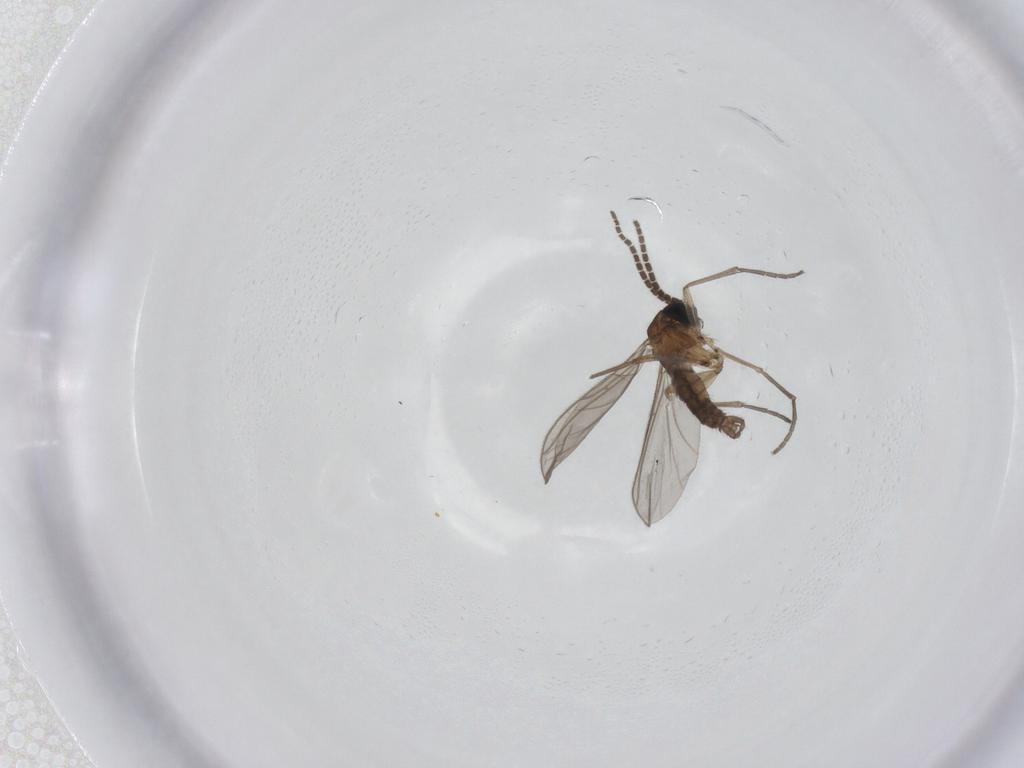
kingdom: Animalia
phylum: Arthropoda
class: Insecta
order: Diptera
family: Sciaridae
